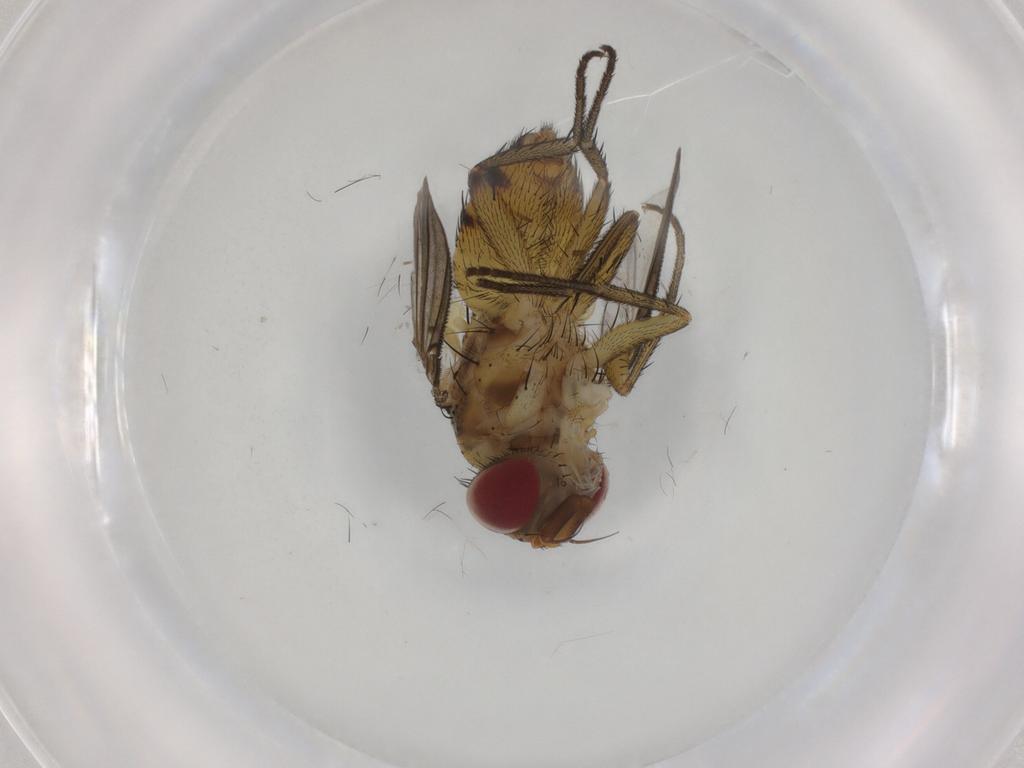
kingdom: Animalia
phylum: Arthropoda
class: Insecta
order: Diptera
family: Tachinidae
